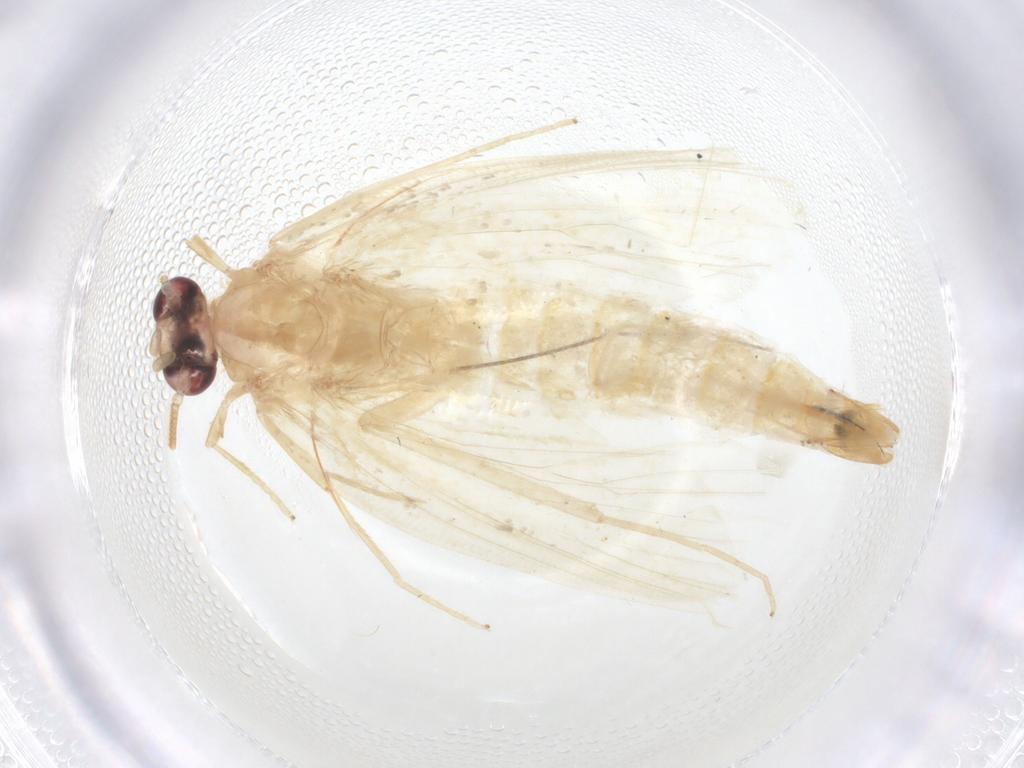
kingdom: Animalia
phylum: Arthropoda
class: Insecta
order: Lepidoptera
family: Psychidae
